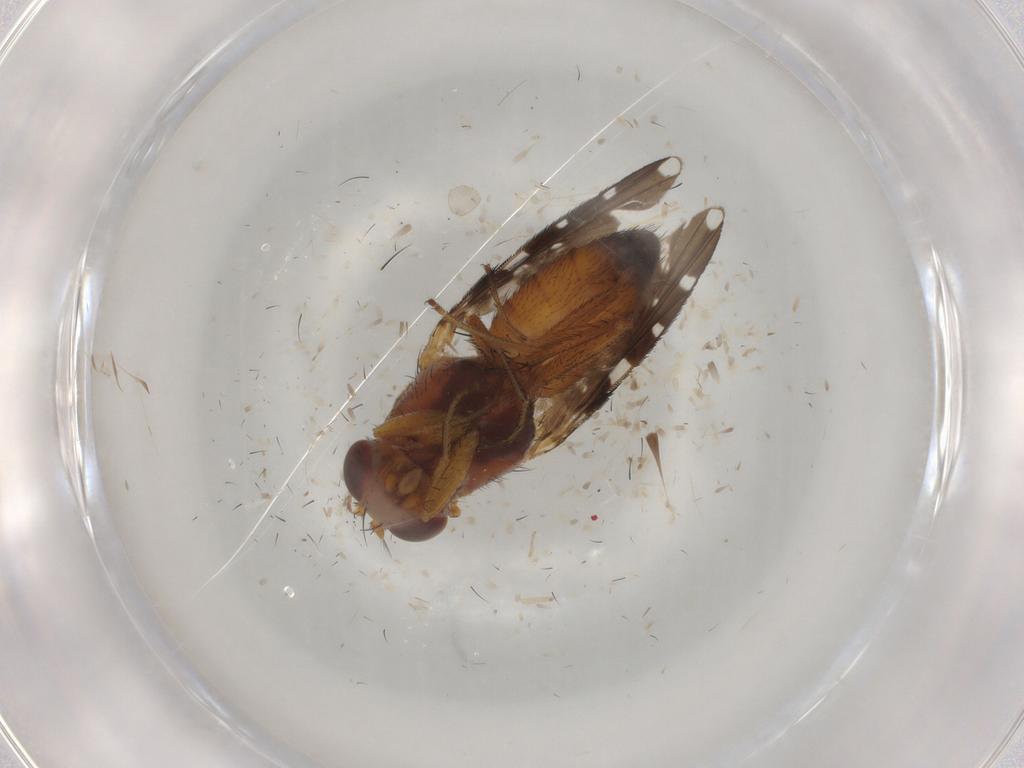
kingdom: Animalia
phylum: Arthropoda
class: Insecta
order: Diptera
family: Ephydridae
